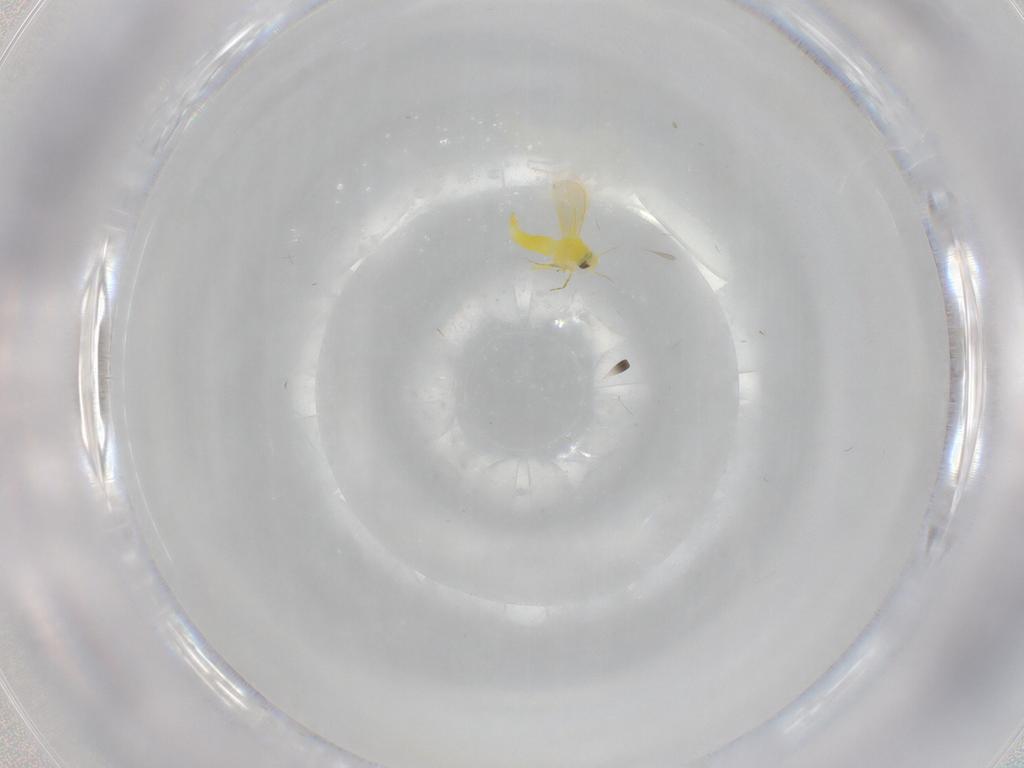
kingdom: Animalia
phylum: Arthropoda
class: Insecta
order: Hemiptera
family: Aleyrodidae
